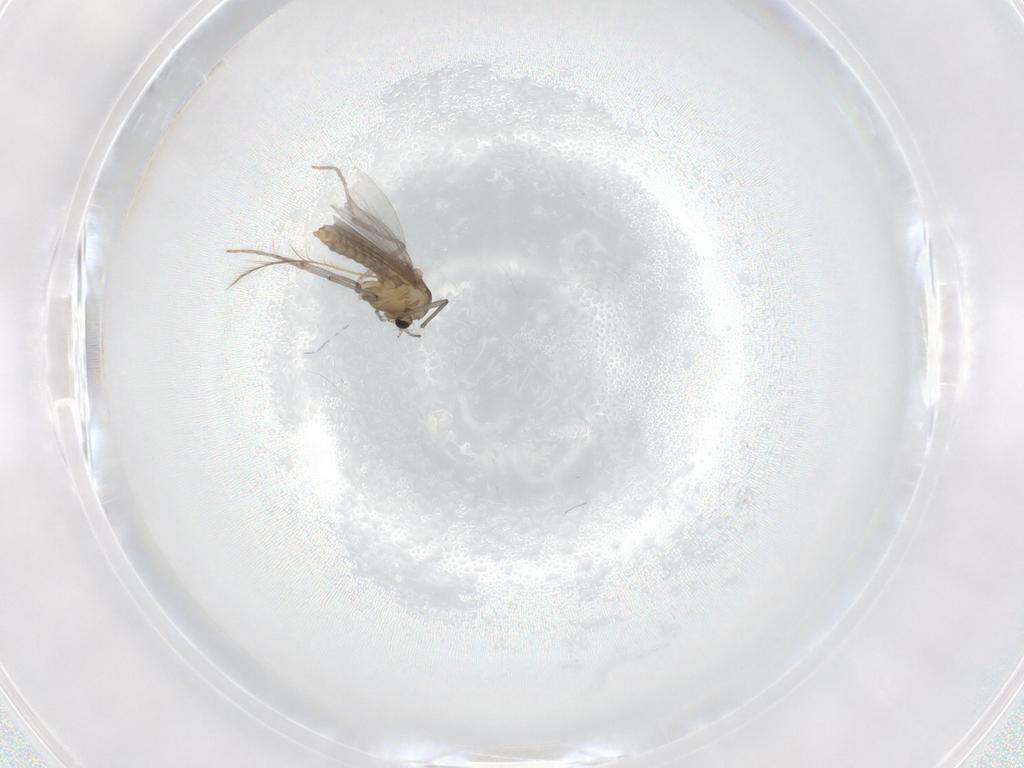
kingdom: Animalia
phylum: Arthropoda
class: Insecta
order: Diptera
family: Chironomidae
